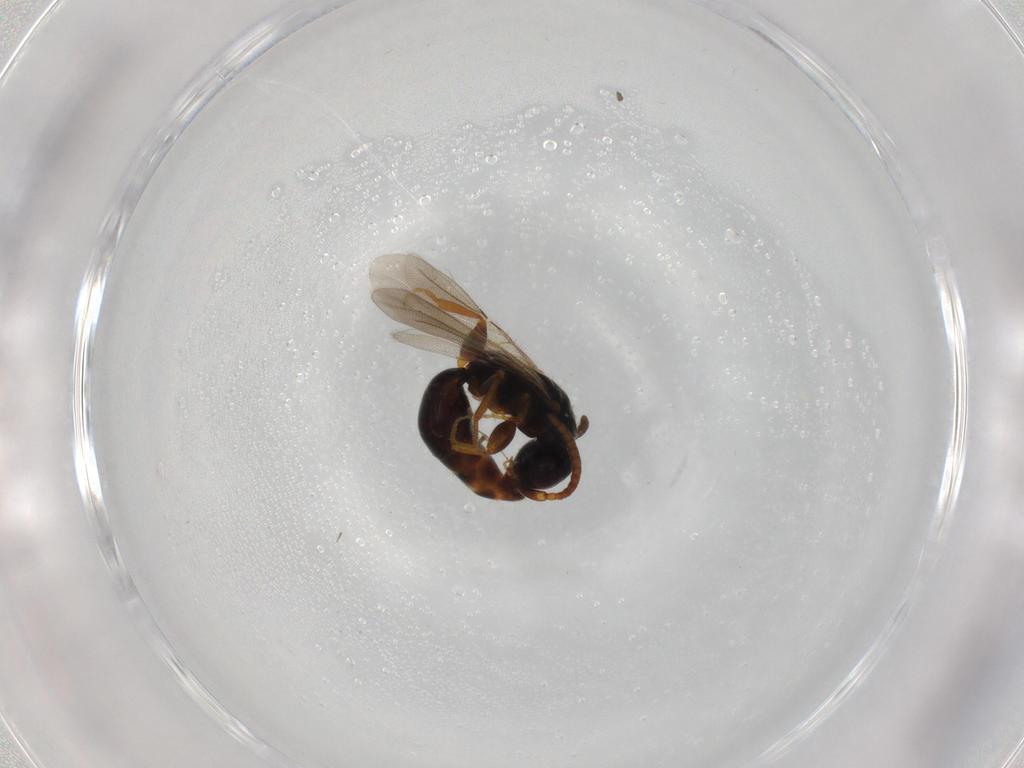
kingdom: Animalia
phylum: Arthropoda
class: Insecta
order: Hymenoptera
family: Bethylidae
